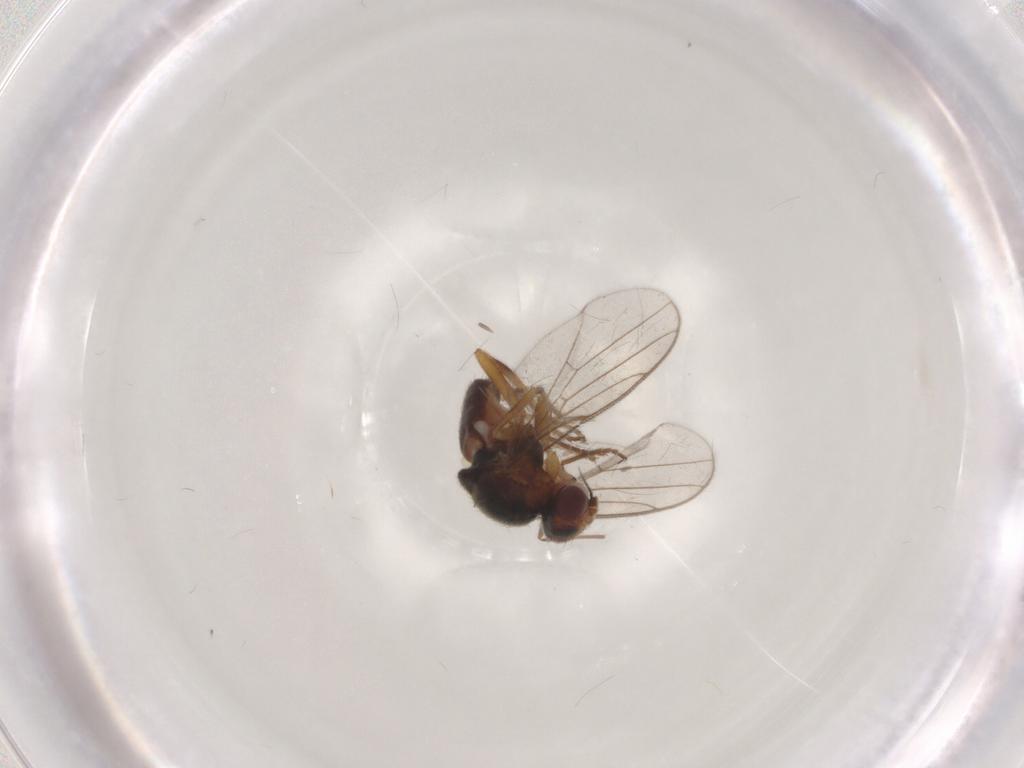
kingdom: Animalia
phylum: Arthropoda
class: Insecta
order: Diptera
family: Chloropidae
